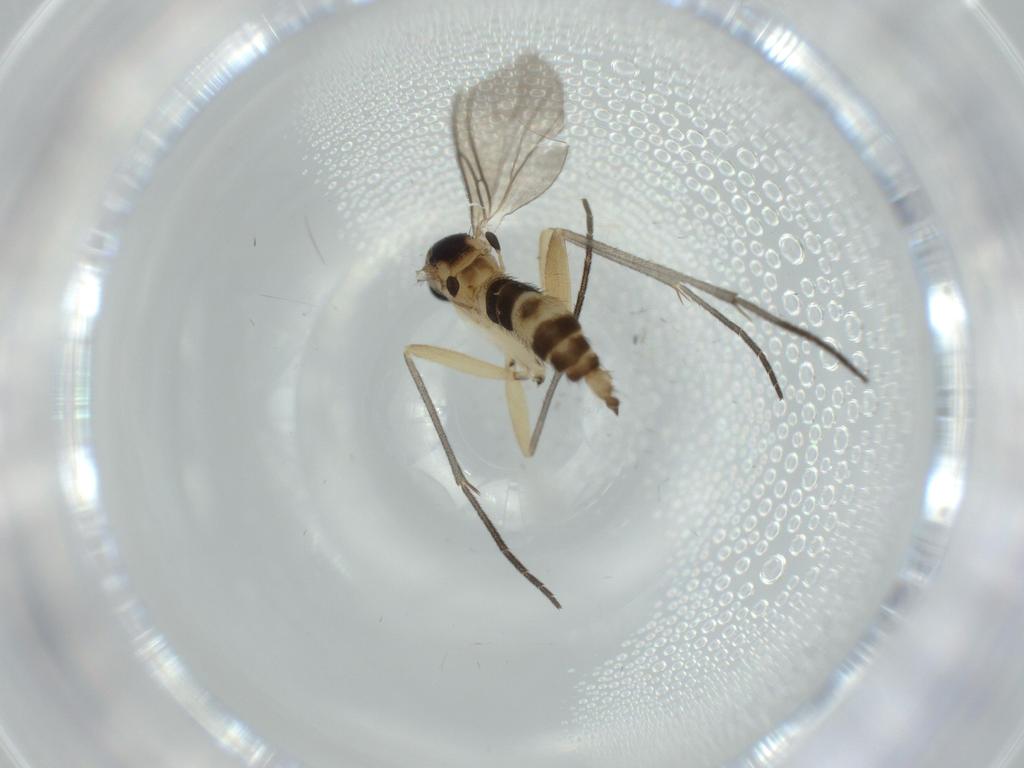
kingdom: Animalia
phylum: Arthropoda
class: Insecta
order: Diptera
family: Sciaridae
